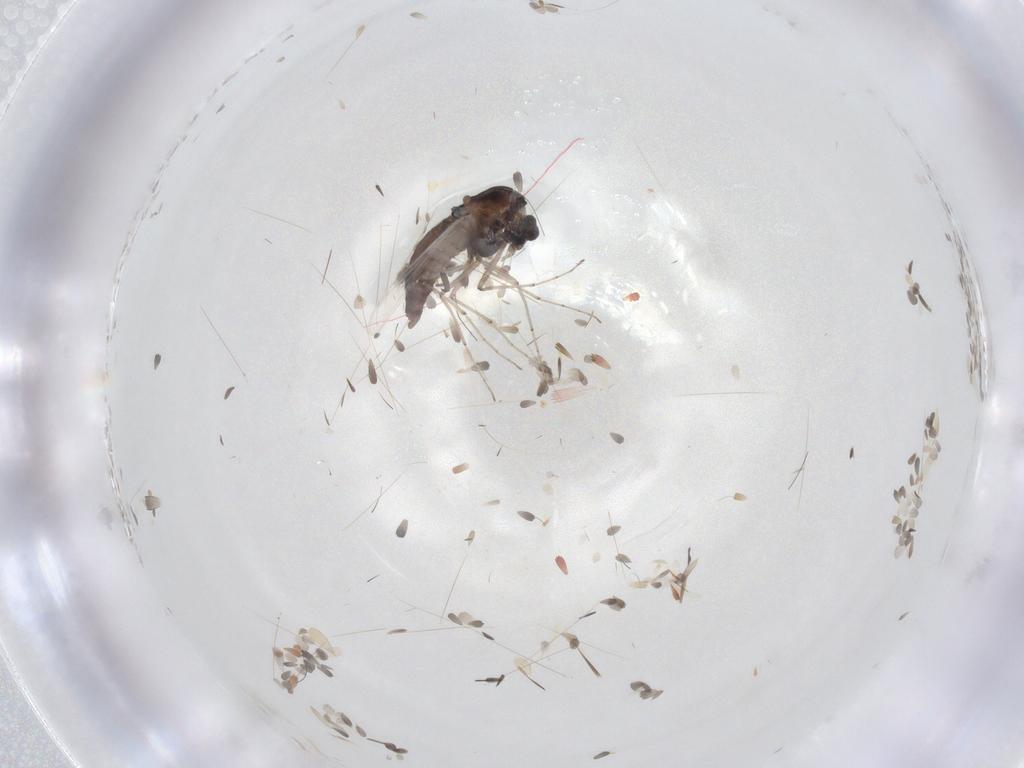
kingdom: Animalia
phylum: Arthropoda
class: Insecta
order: Diptera
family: Chironomidae
